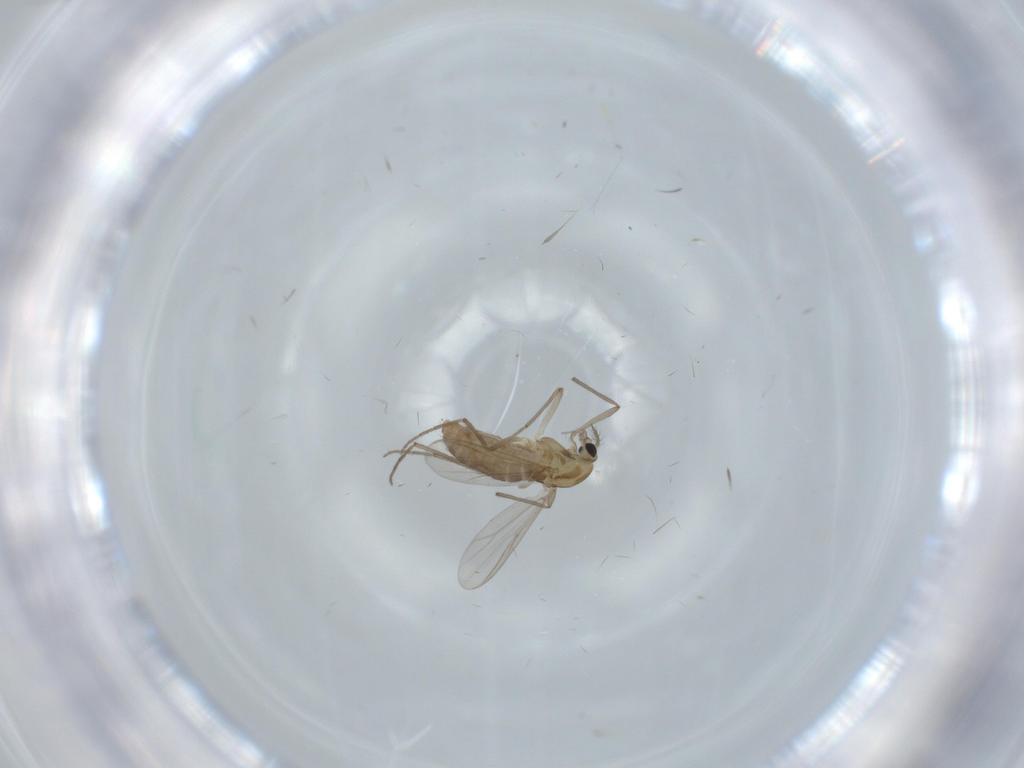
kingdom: Animalia
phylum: Arthropoda
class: Insecta
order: Diptera
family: Chironomidae
